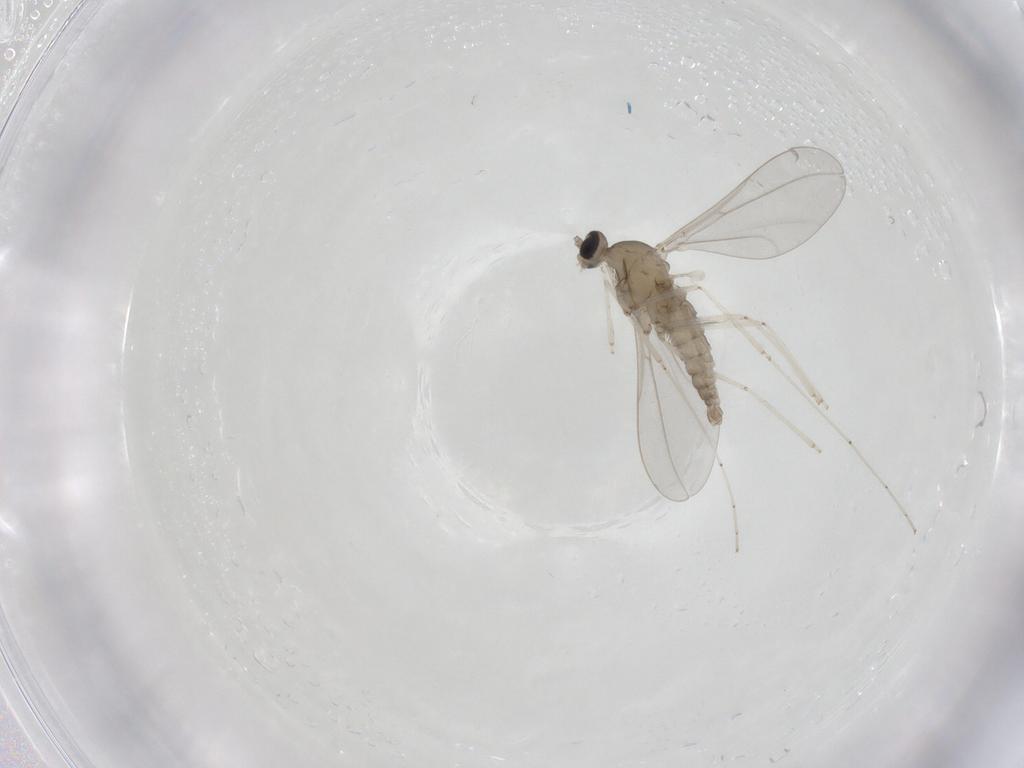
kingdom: Animalia
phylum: Arthropoda
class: Insecta
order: Diptera
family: Cecidomyiidae
